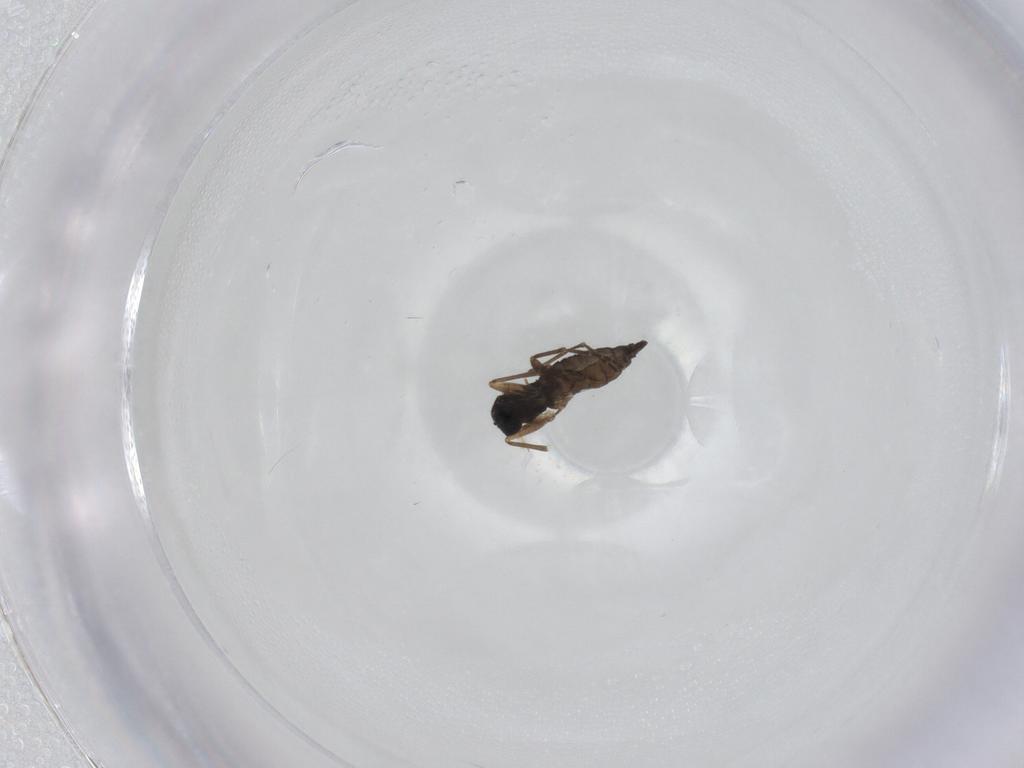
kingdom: Animalia
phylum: Arthropoda
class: Insecta
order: Diptera
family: Sciaridae
